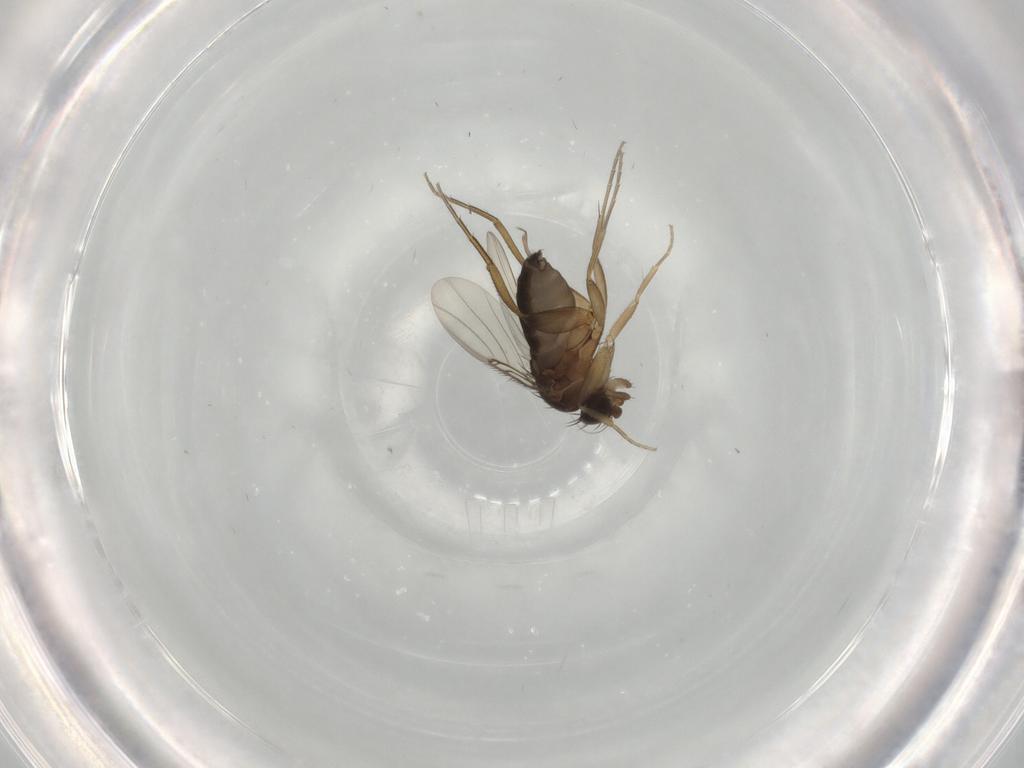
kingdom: Animalia
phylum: Arthropoda
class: Insecta
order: Diptera
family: Phoridae
